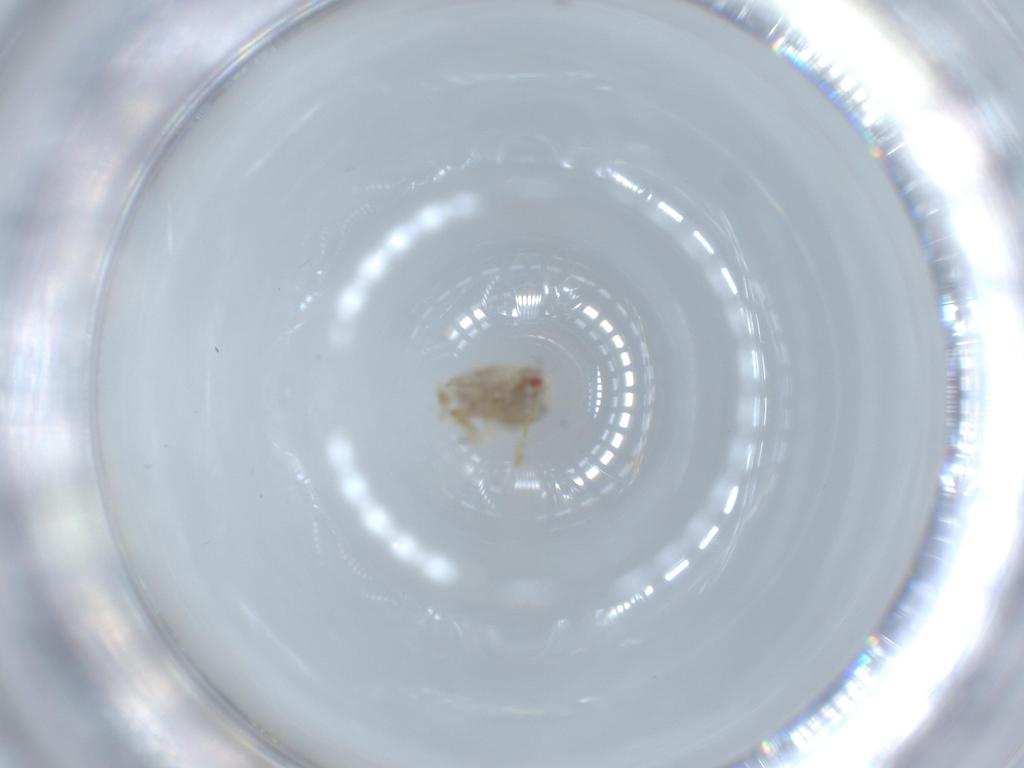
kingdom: Animalia
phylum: Arthropoda
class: Insecta
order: Hemiptera
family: Acanaloniidae
